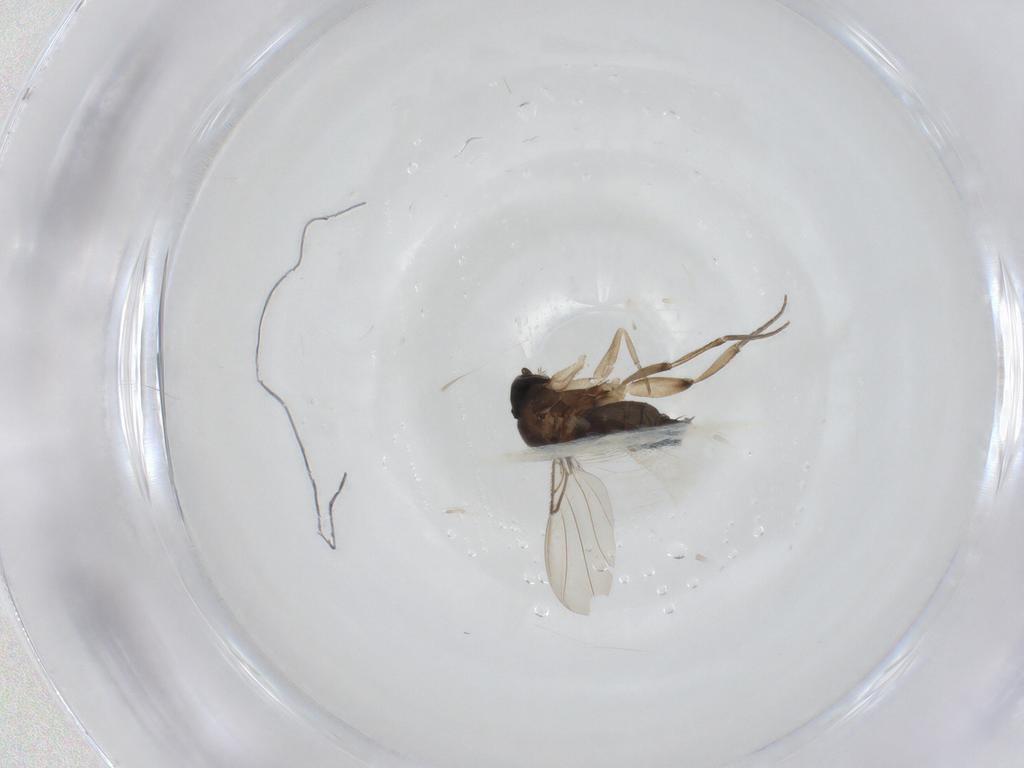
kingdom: Animalia
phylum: Arthropoda
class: Insecta
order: Diptera
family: Phoridae
